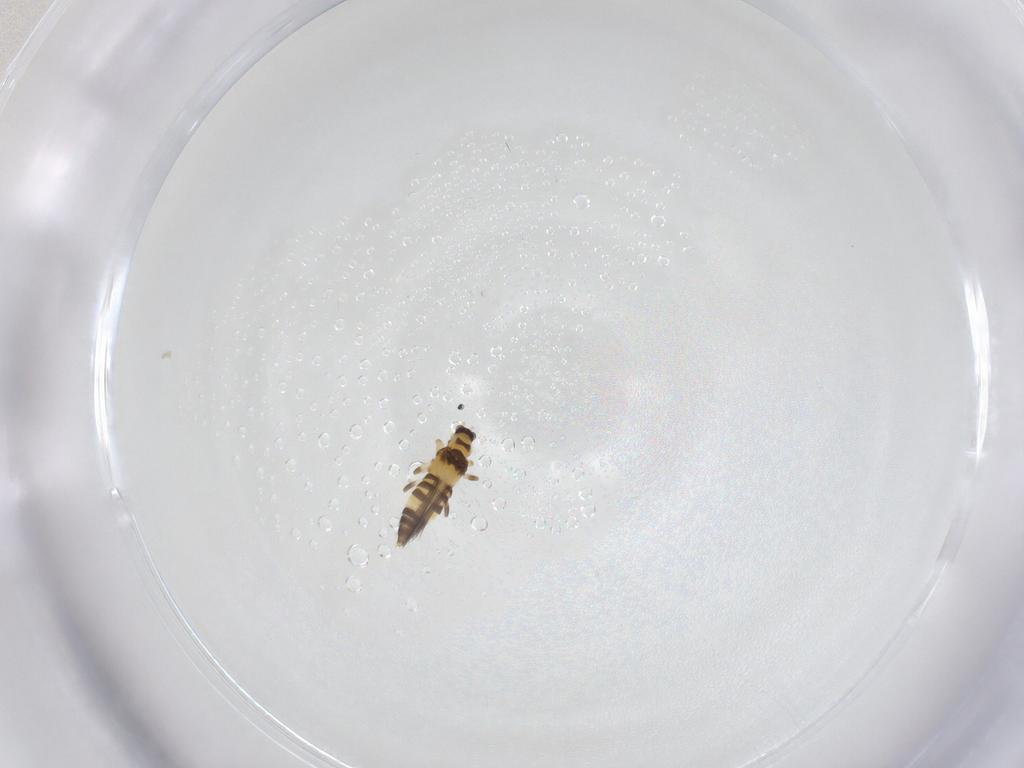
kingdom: Animalia
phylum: Arthropoda
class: Insecta
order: Thysanoptera
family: Thripidae
